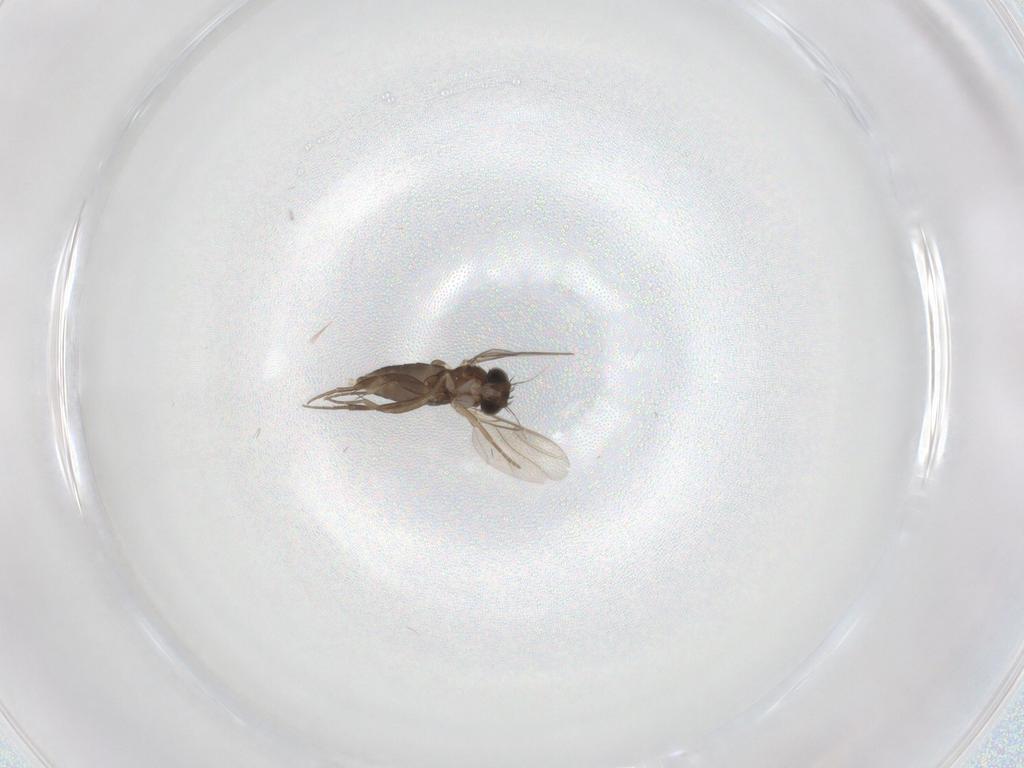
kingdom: Animalia
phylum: Arthropoda
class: Insecta
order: Diptera
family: Phoridae
